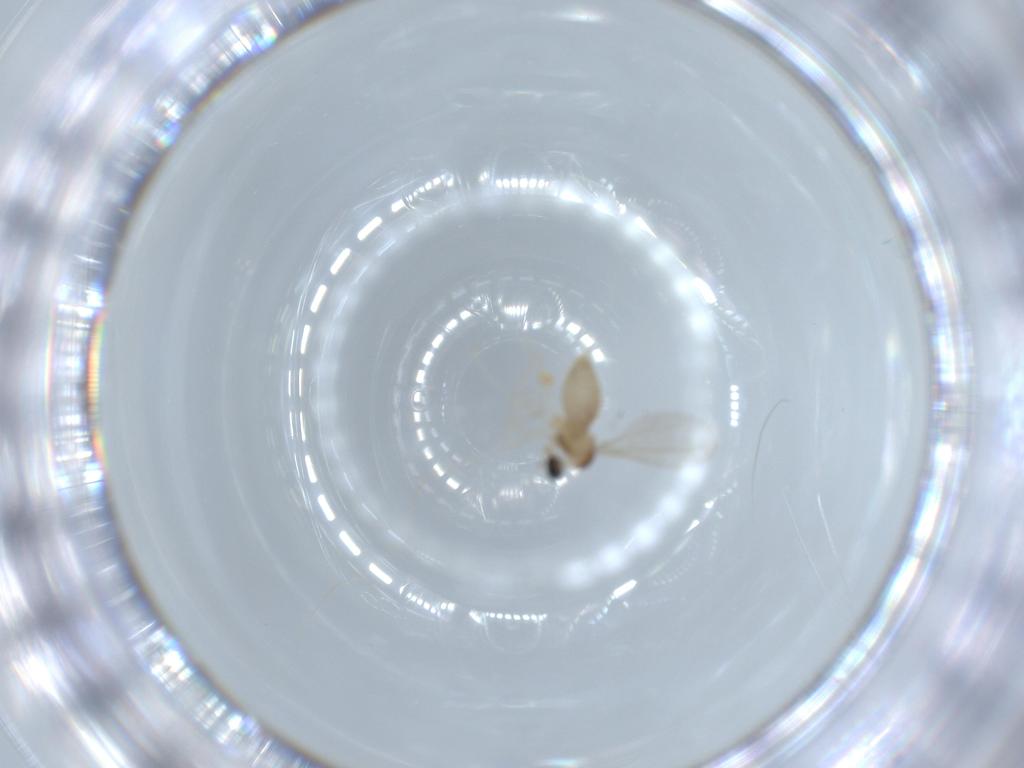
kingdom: Animalia
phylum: Arthropoda
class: Insecta
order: Diptera
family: Cecidomyiidae
